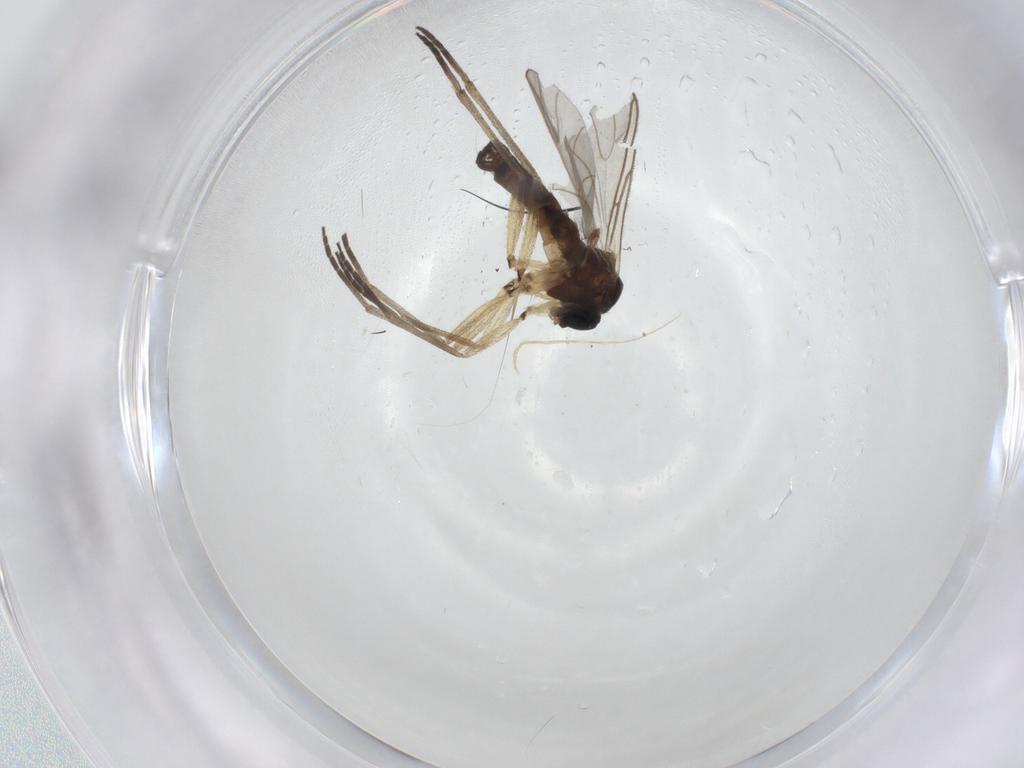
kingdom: Animalia
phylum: Arthropoda
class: Insecta
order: Diptera
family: Sciaridae
